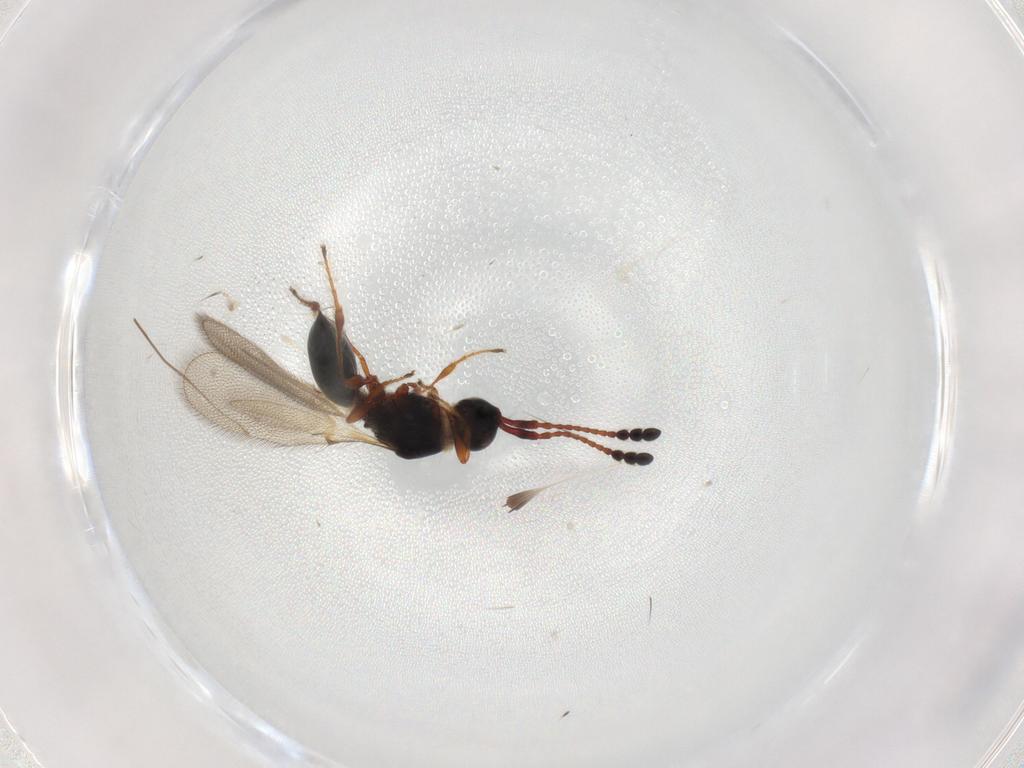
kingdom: Animalia
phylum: Arthropoda
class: Insecta
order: Hymenoptera
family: Diapriidae
